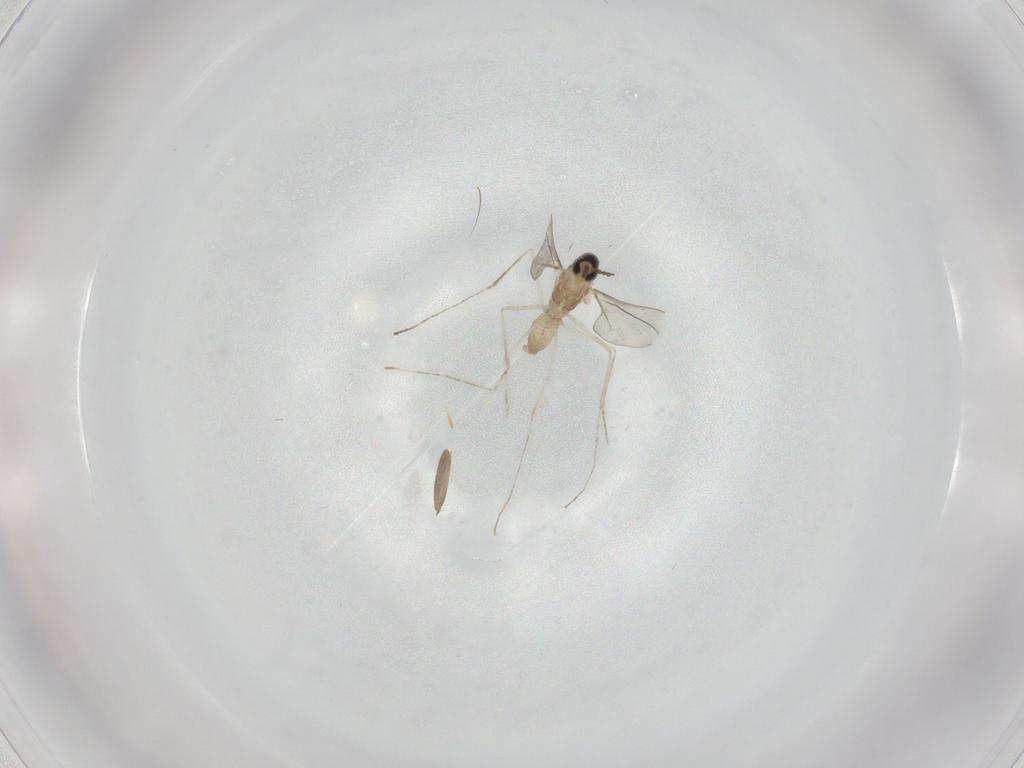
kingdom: Animalia
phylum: Arthropoda
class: Insecta
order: Diptera
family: Cecidomyiidae
